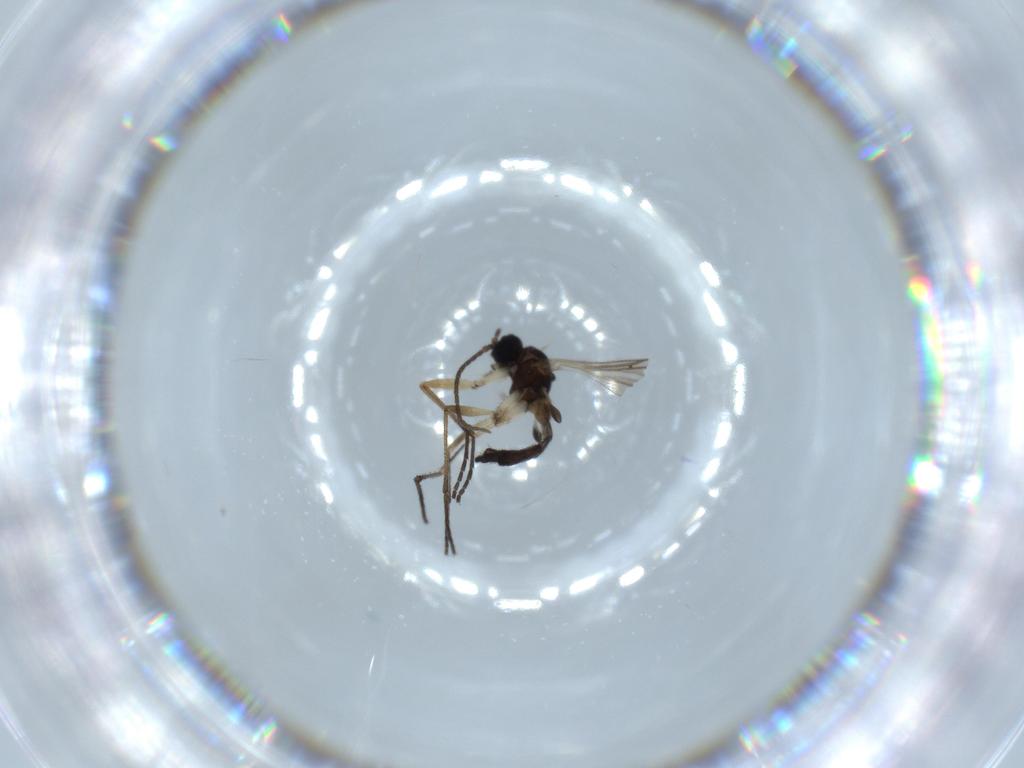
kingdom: Animalia
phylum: Arthropoda
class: Insecta
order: Diptera
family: Sciaridae
